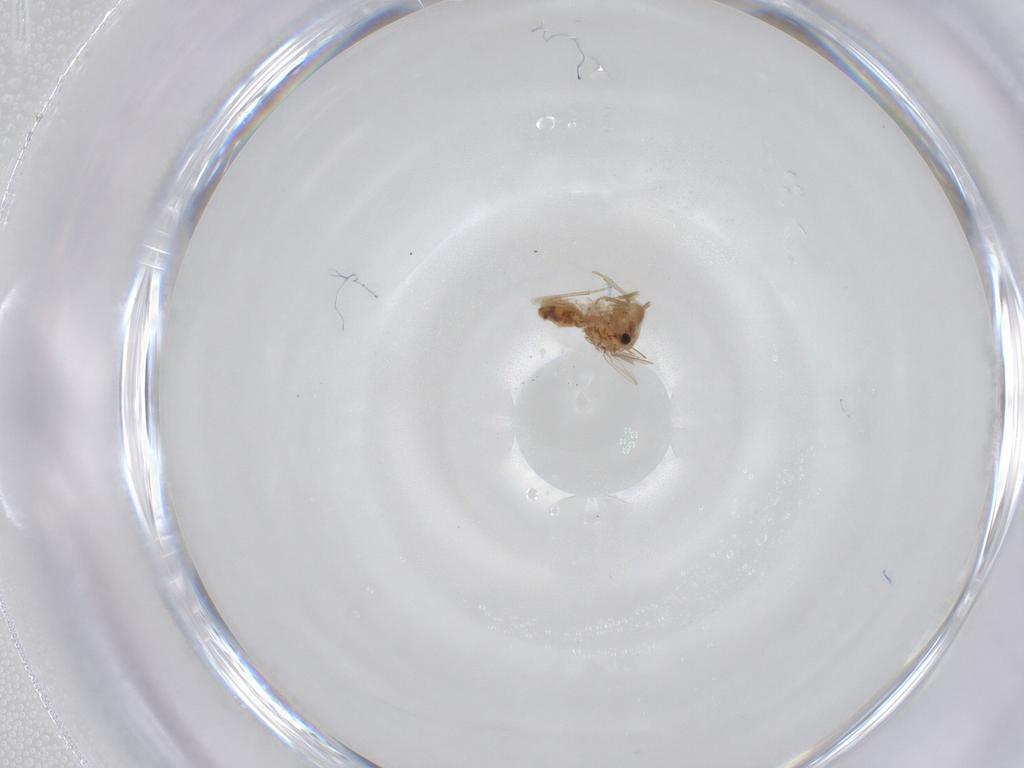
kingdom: Animalia
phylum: Arthropoda
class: Insecta
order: Psocodea
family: Ectopsocidae
